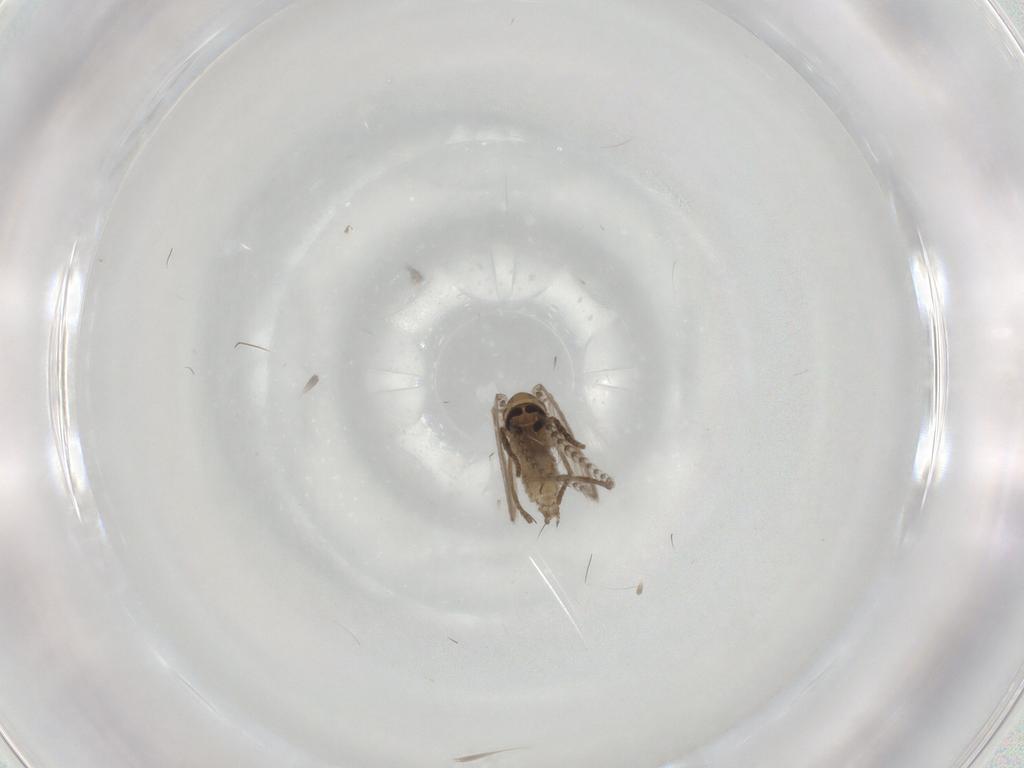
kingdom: Animalia
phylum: Arthropoda
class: Insecta
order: Diptera
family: Psychodidae
